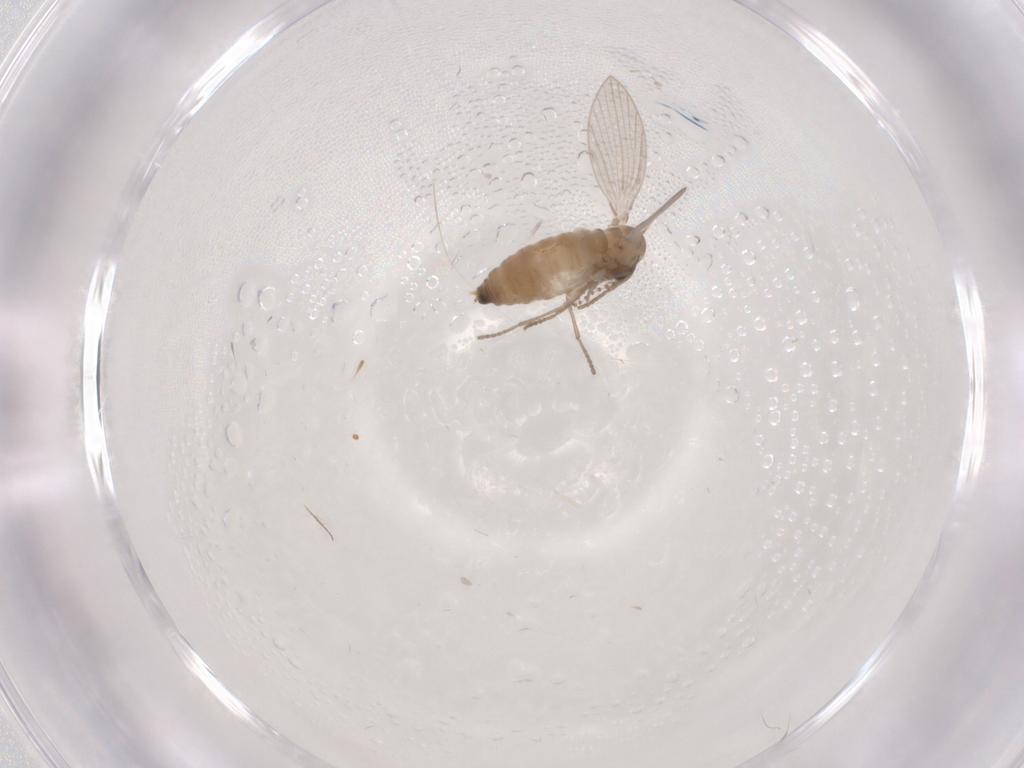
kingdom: Animalia
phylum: Arthropoda
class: Insecta
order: Diptera
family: Psychodidae
